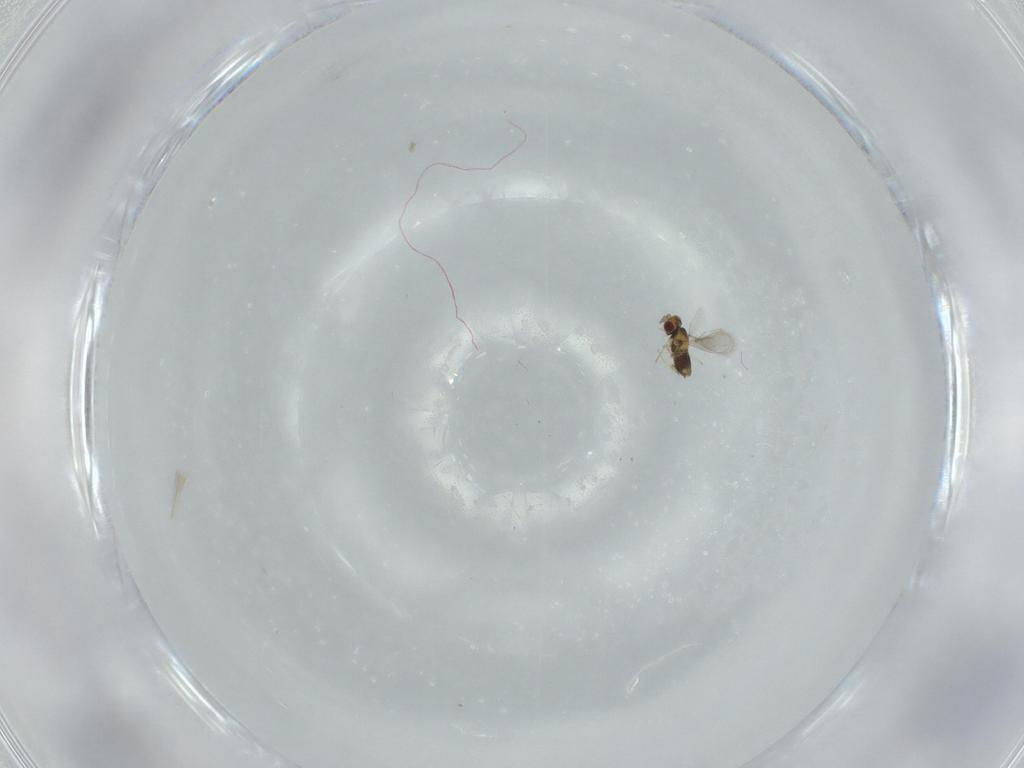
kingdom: Animalia
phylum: Arthropoda
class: Insecta
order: Hymenoptera
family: Aphelinidae
